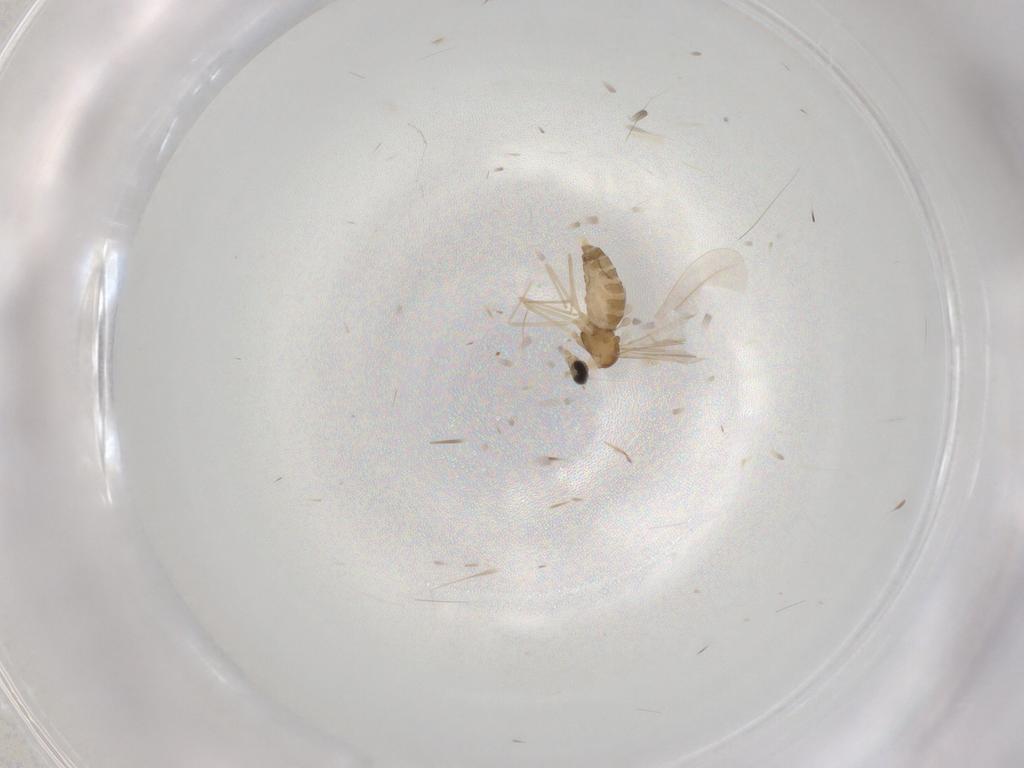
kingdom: Animalia
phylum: Arthropoda
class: Insecta
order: Diptera
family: Cecidomyiidae
